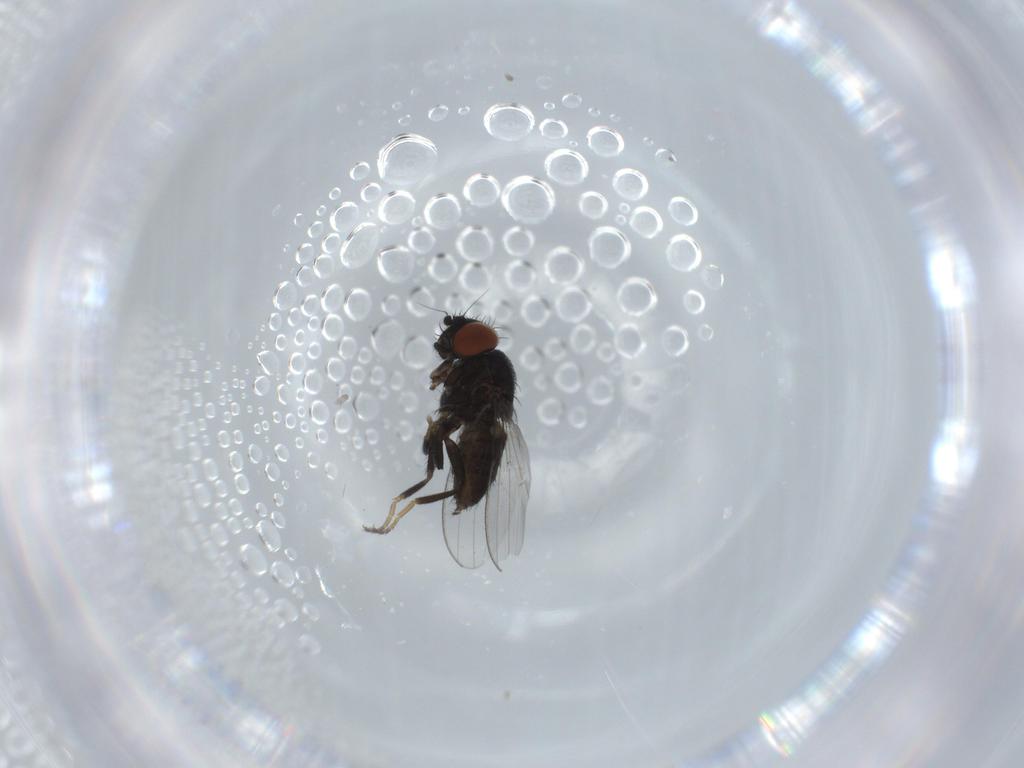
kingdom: Animalia
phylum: Arthropoda
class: Insecta
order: Diptera
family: Milichiidae
